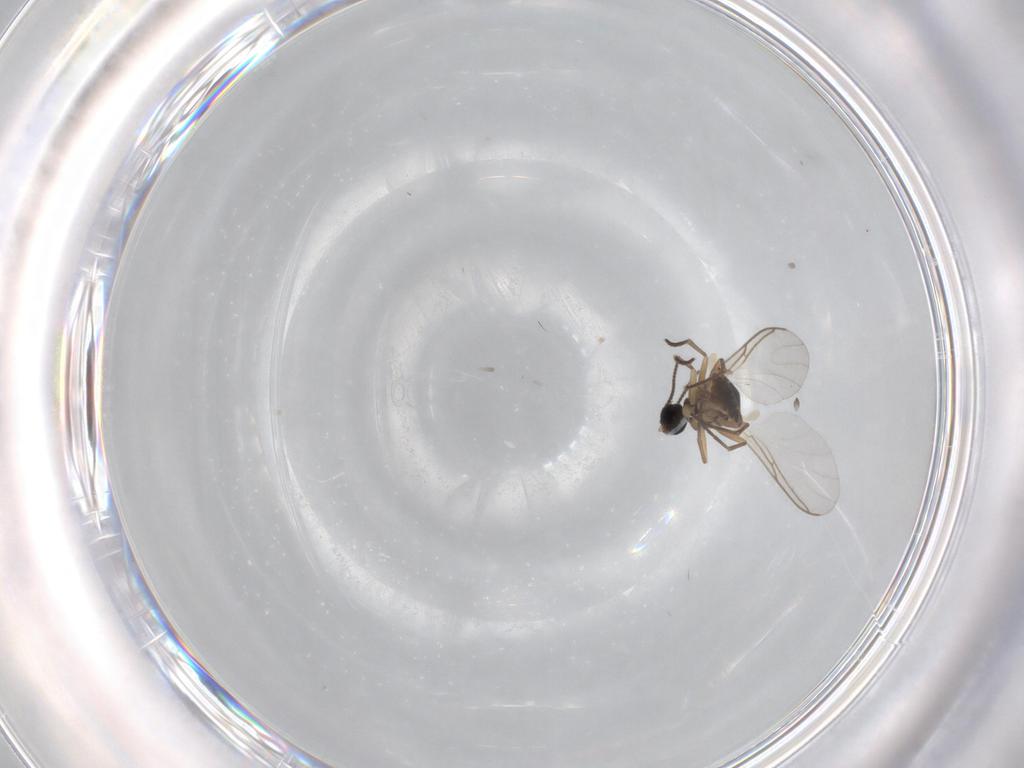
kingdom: Animalia
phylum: Arthropoda
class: Insecta
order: Diptera
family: Sciaridae
